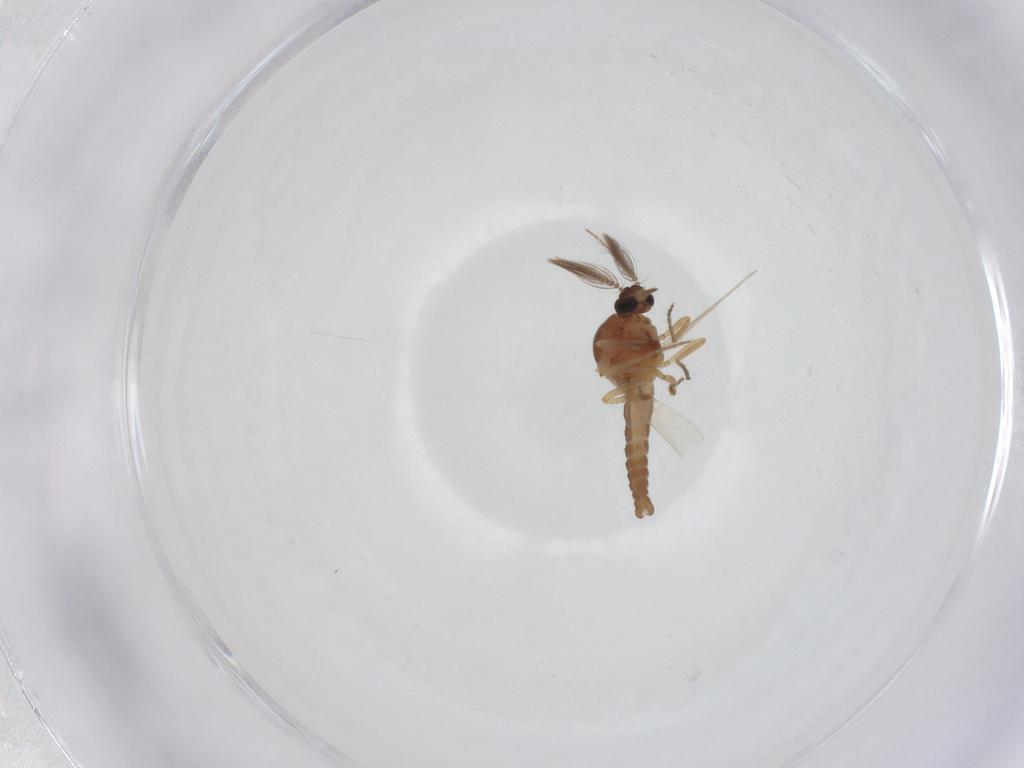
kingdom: Animalia
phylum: Arthropoda
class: Insecta
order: Diptera
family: Ceratopogonidae
